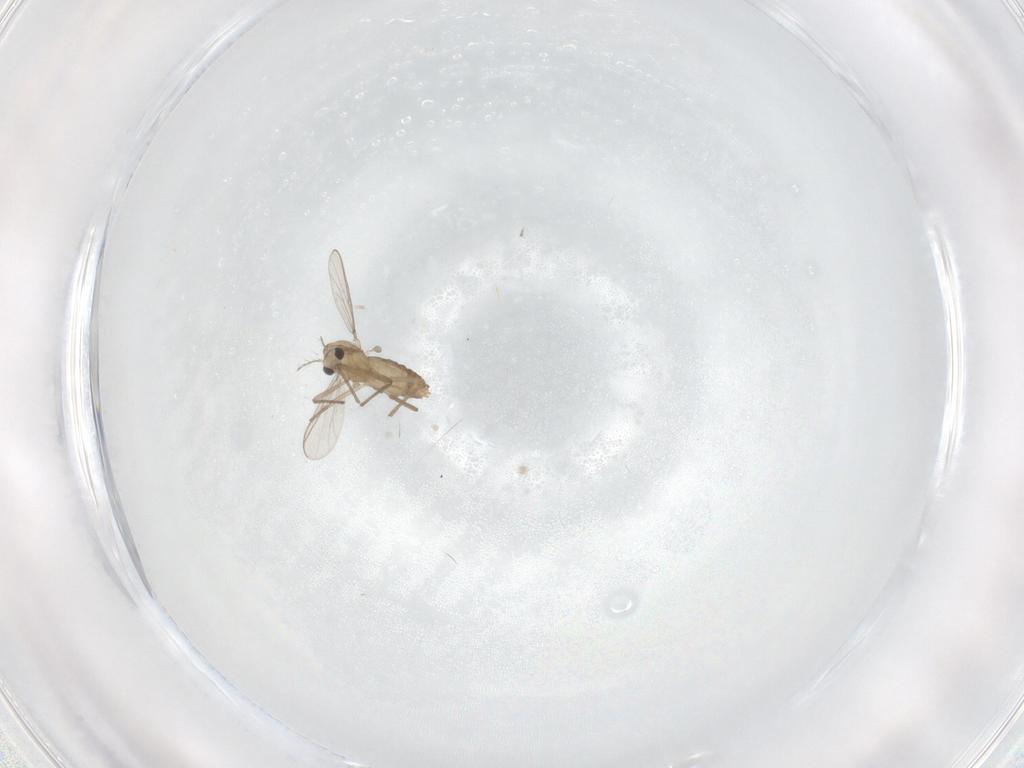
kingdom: Animalia
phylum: Arthropoda
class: Insecta
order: Diptera
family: Chironomidae
